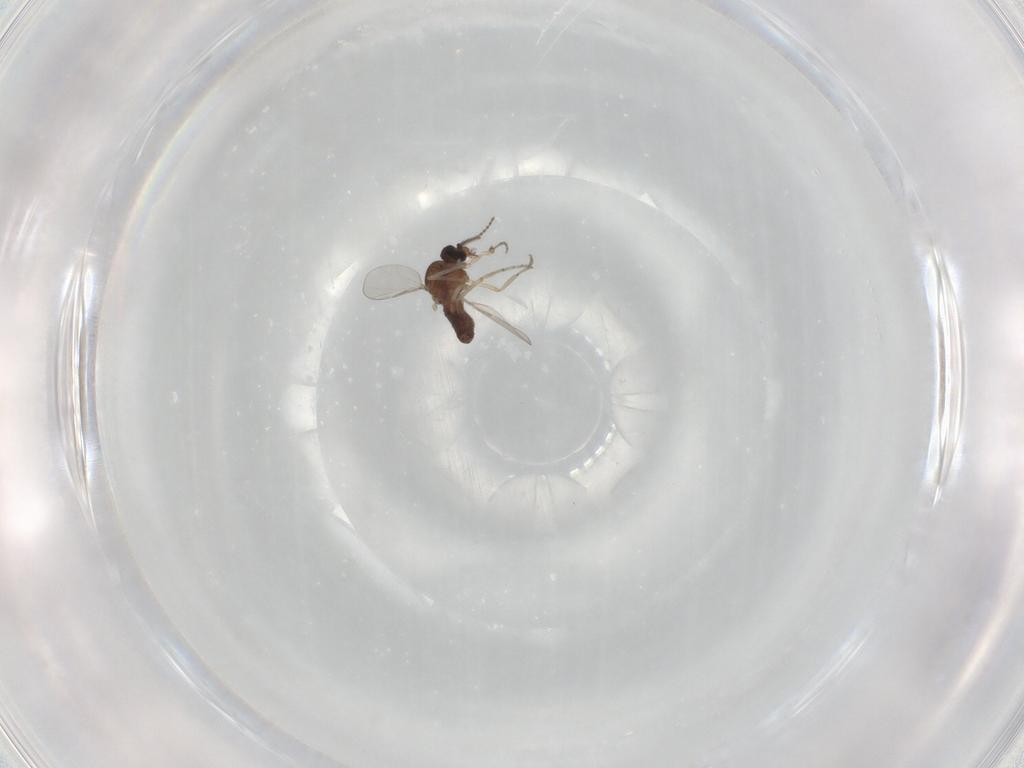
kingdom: Animalia
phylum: Arthropoda
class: Insecta
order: Diptera
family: Ceratopogonidae
